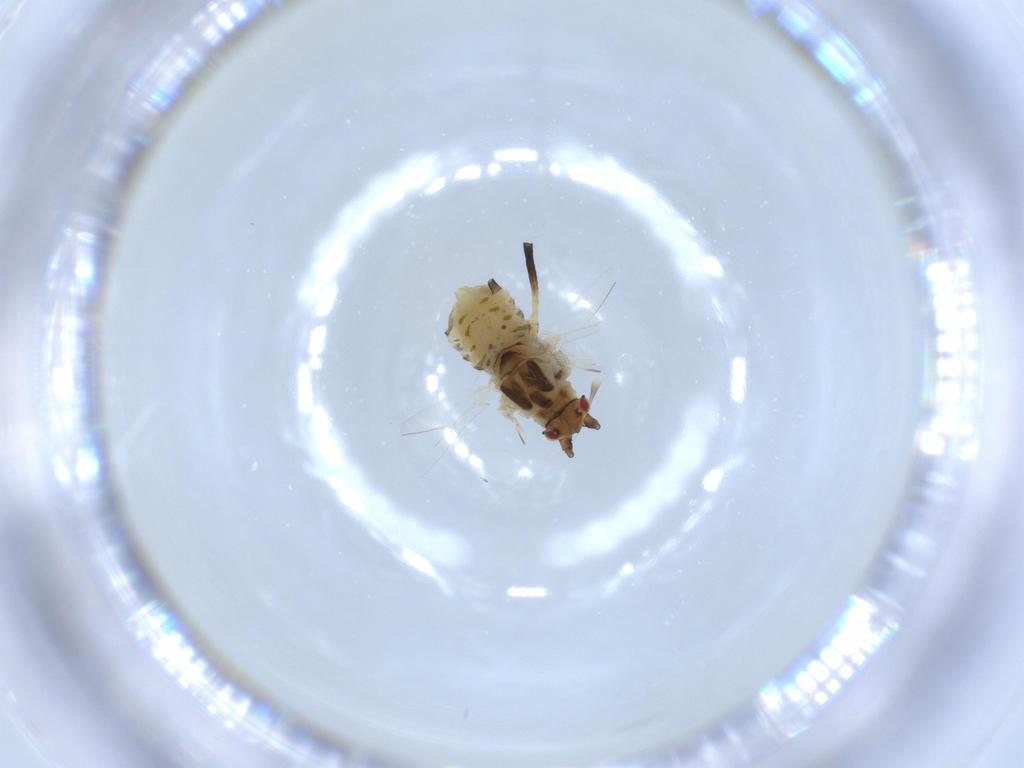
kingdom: Animalia
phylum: Arthropoda
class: Insecta
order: Hemiptera
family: Aphididae
